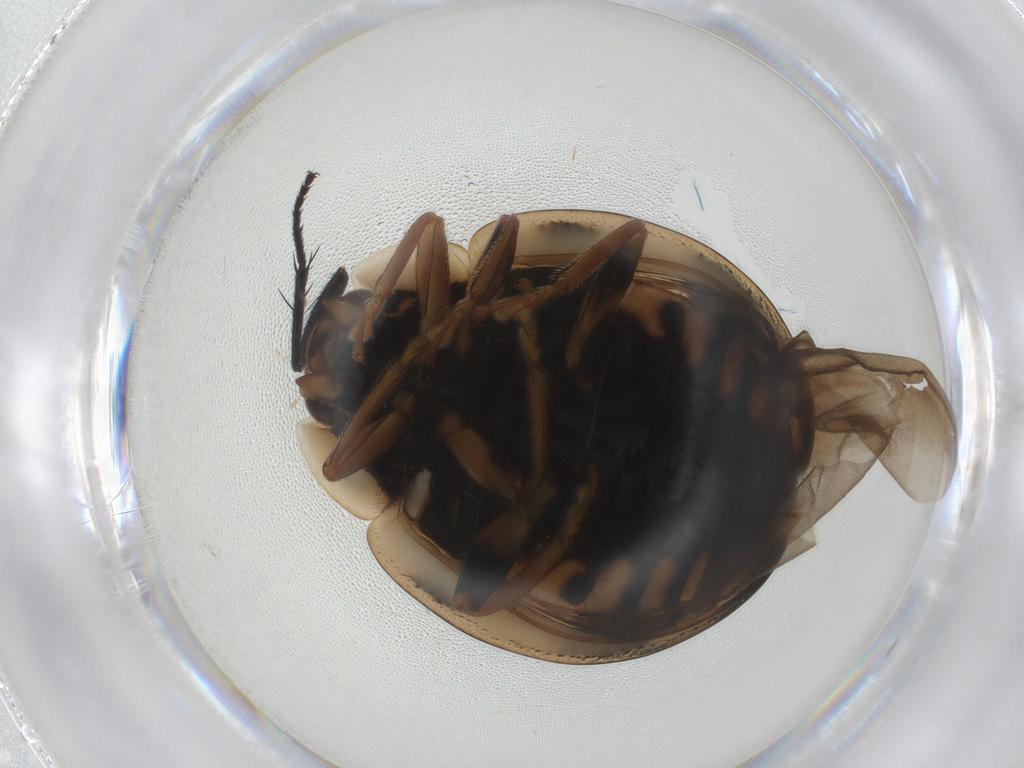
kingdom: Animalia
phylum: Arthropoda
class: Insecta
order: Coleoptera
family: Coccinellidae
